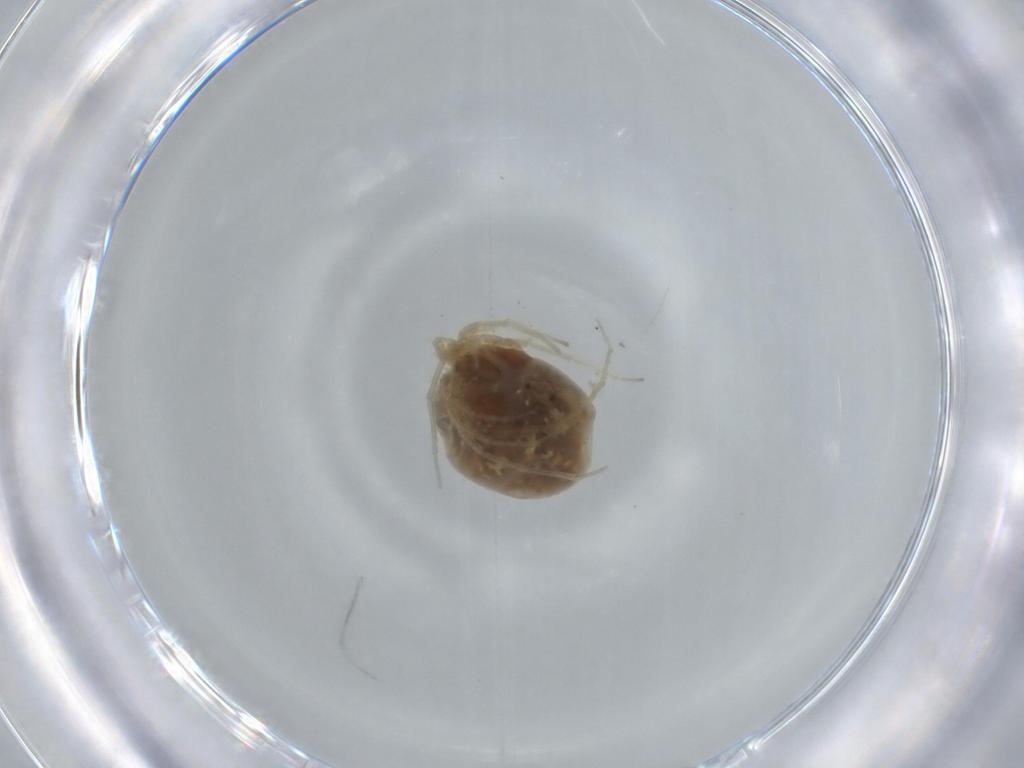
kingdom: Animalia
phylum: Arthropoda
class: Arachnida
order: Trombidiformes
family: Hygrobatidae
